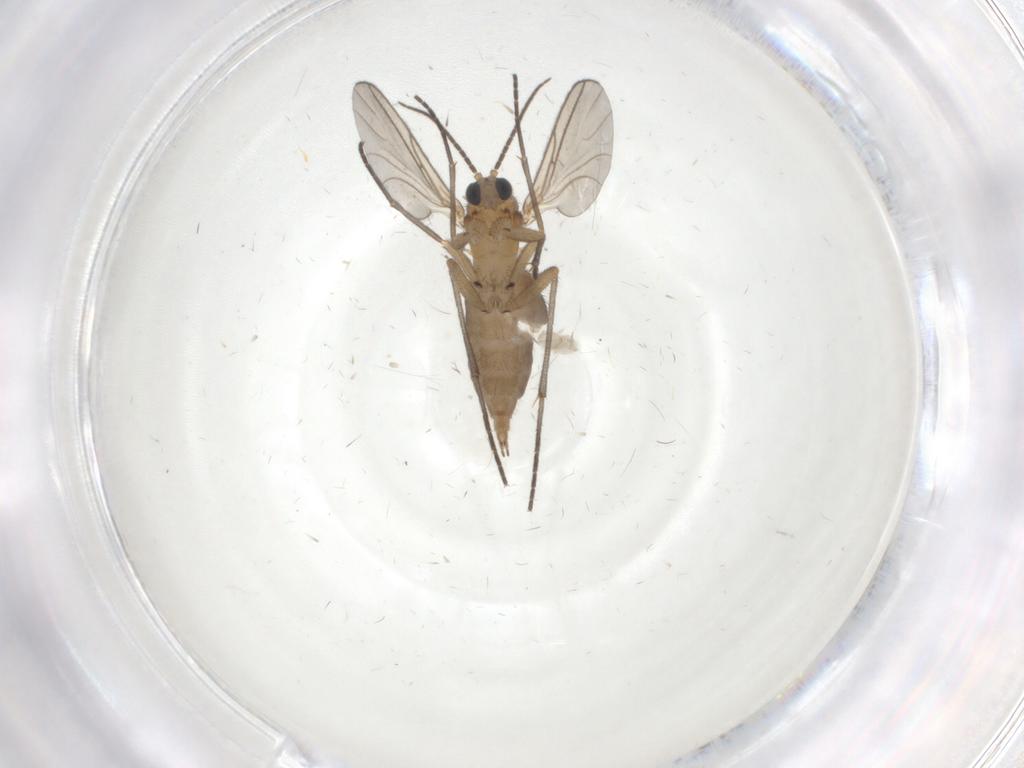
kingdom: Animalia
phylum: Arthropoda
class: Insecta
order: Diptera
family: Sciaridae
